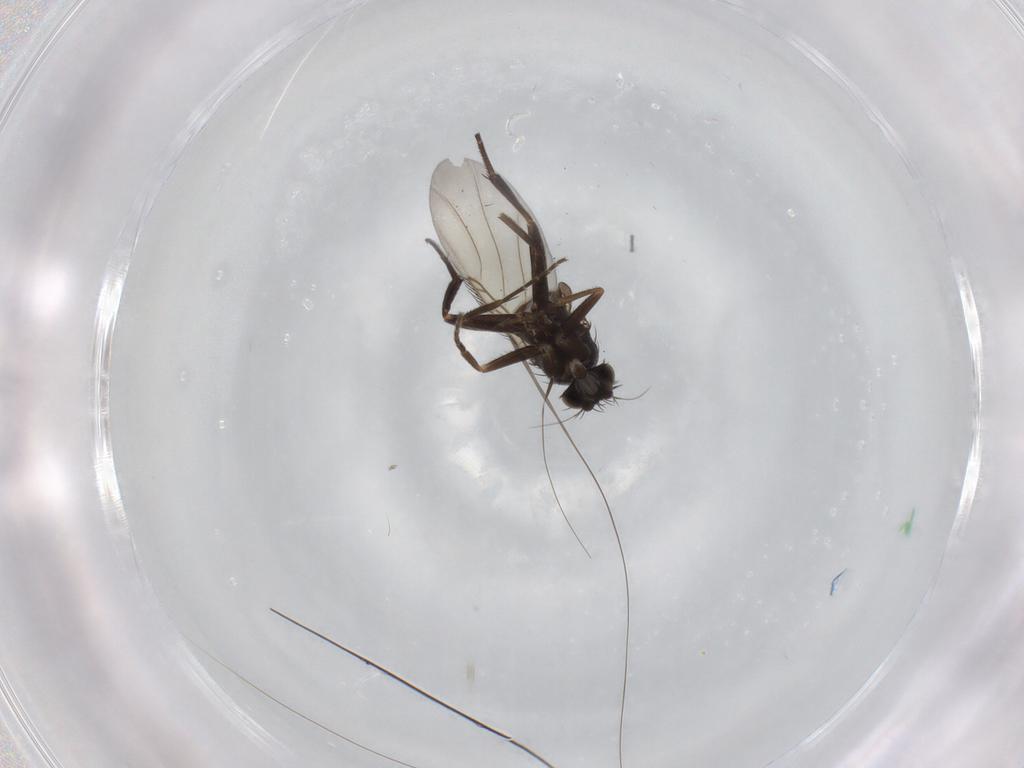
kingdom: Animalia
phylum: Arthropoda
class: Insecta
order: Diptera
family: Phoridae
